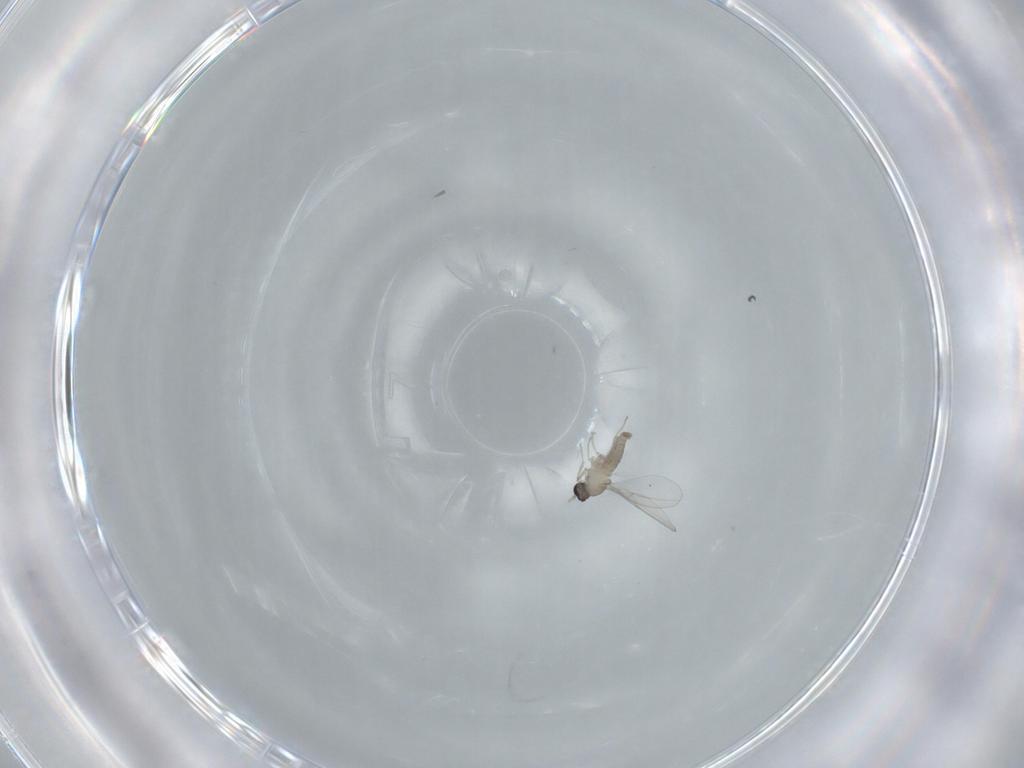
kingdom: Animalia
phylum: Arthropoda
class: Insecta
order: Diptera
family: Cecidomyiidae
